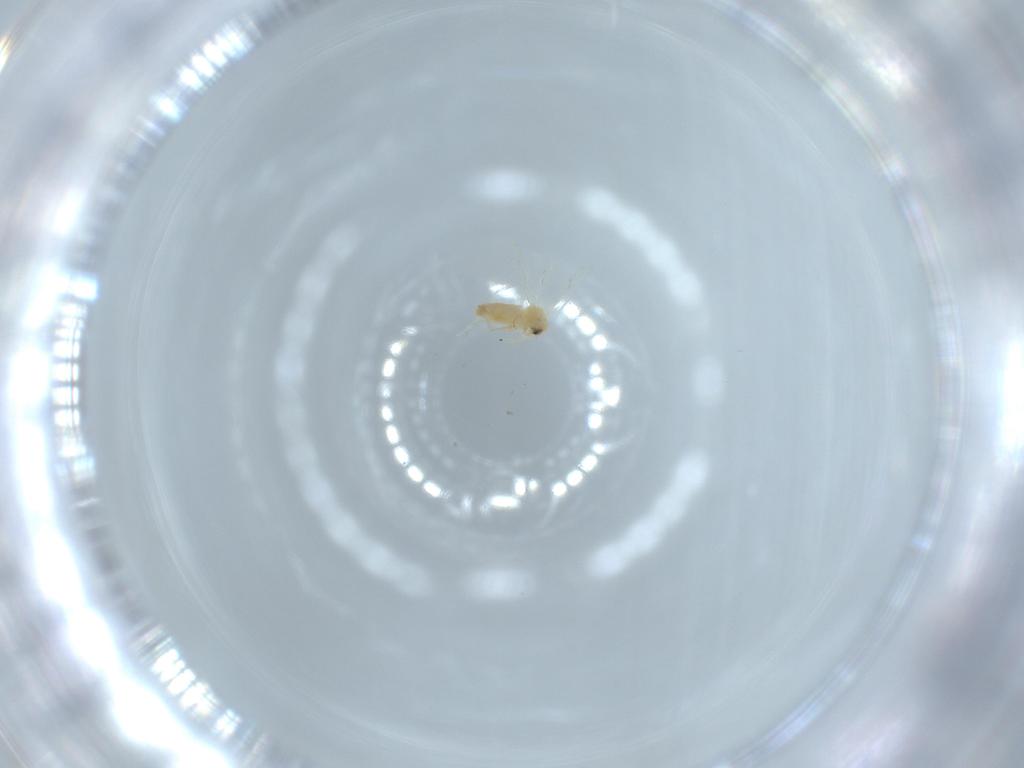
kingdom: Animalia
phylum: Arthropoda
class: Insecta
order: Hemiptera
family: Aleyrodidae
